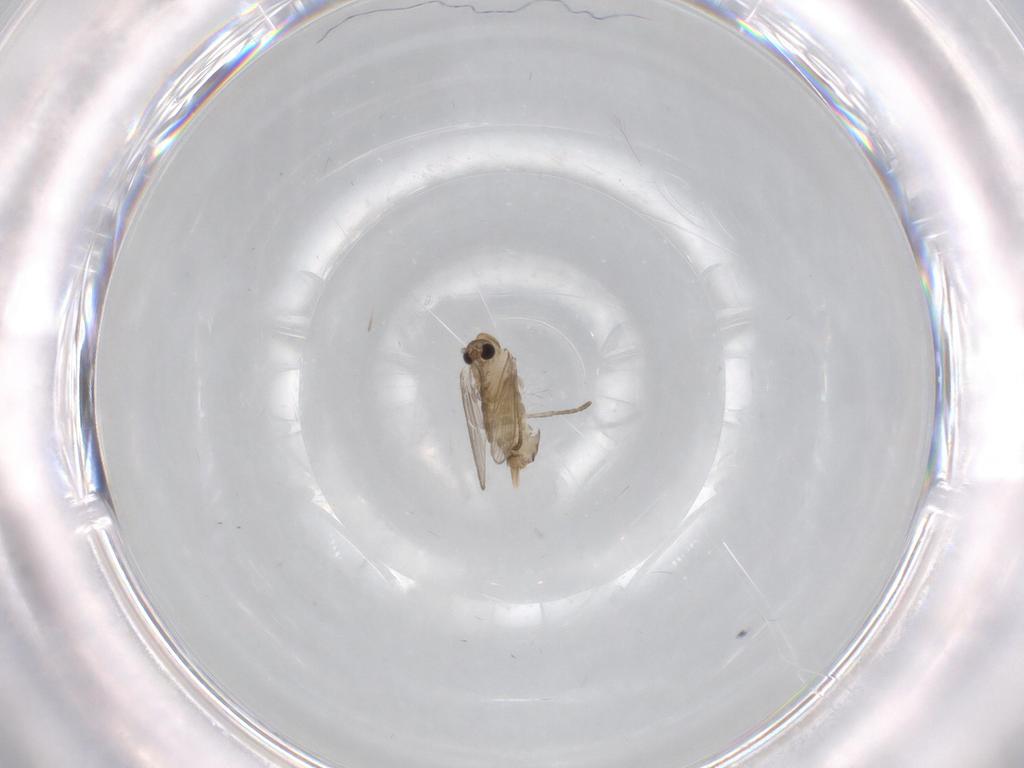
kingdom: Animalia
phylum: Arthropoda
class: Insecta
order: Diptera
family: Psychodidae
